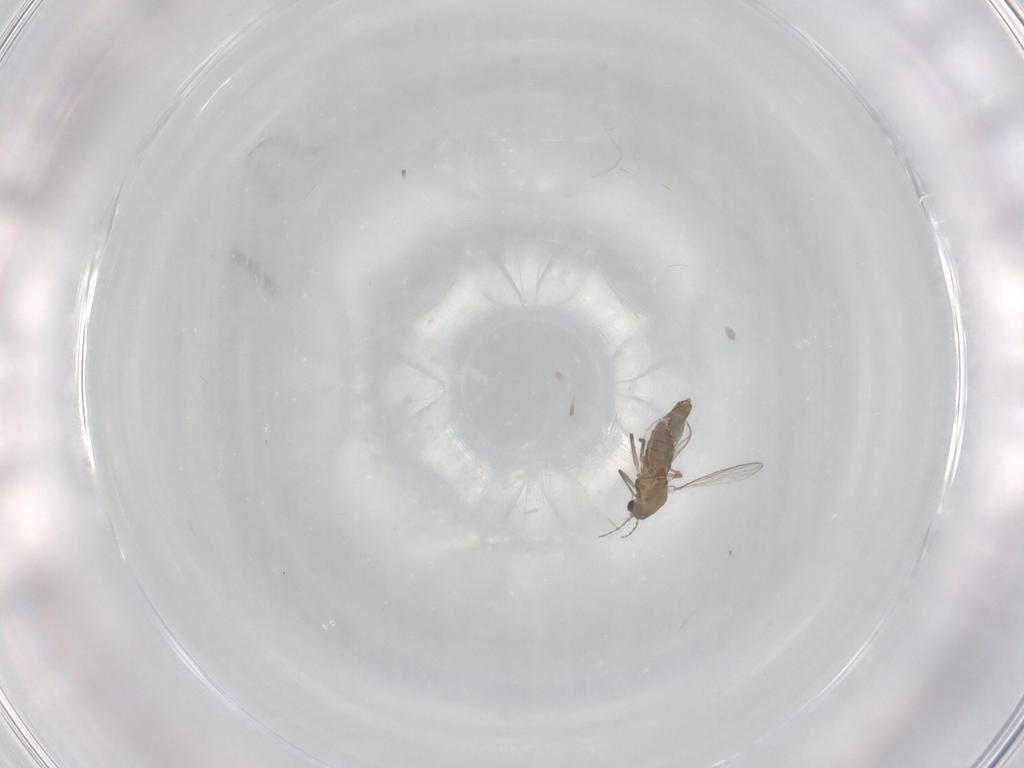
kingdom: Animalia
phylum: Arthropoda
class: Insecta
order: Diptera
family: Chironomidae
